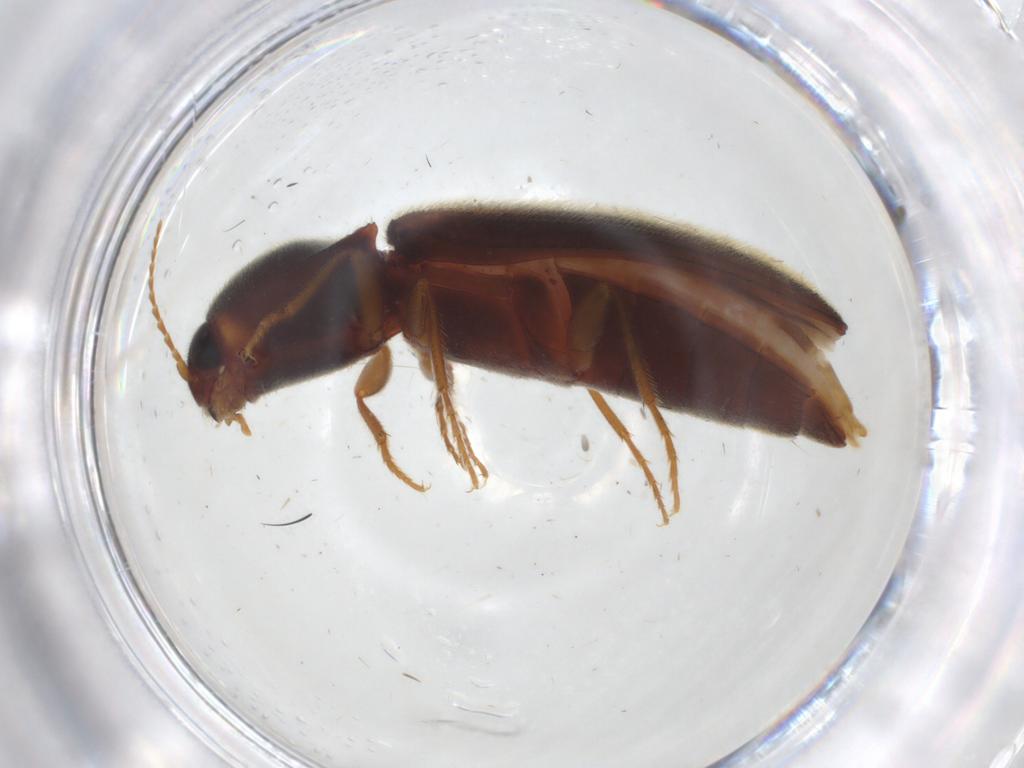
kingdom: Animalia
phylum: Arthropoda
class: Insecta
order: Coleoptera
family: Elateridae
